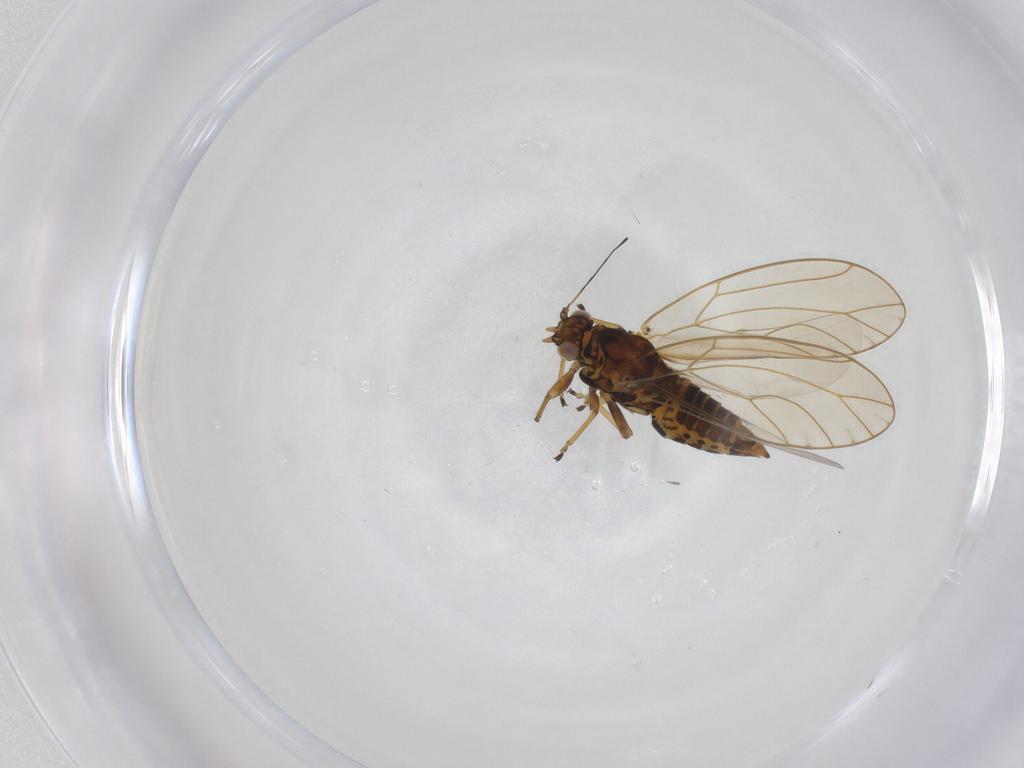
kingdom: Animalia
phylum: Arthropoda
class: Insecta
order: Hemiptera
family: Triozidae
